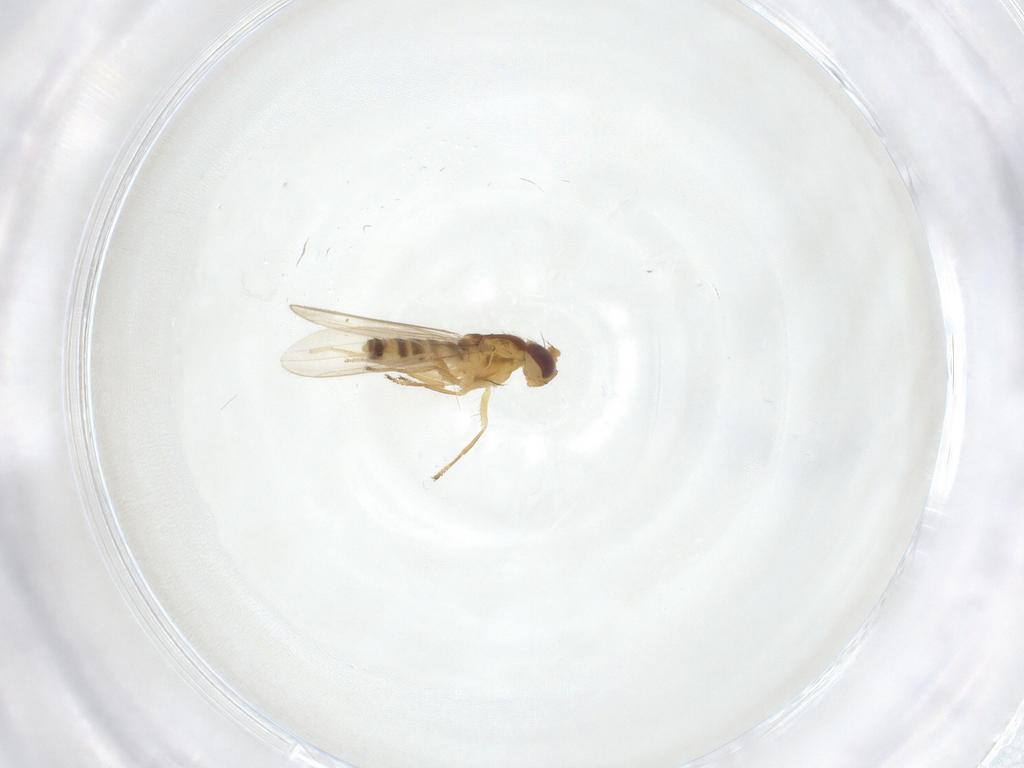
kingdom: Animalia
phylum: Arthropoda
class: Insecta
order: Diptera
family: Periscelididae
